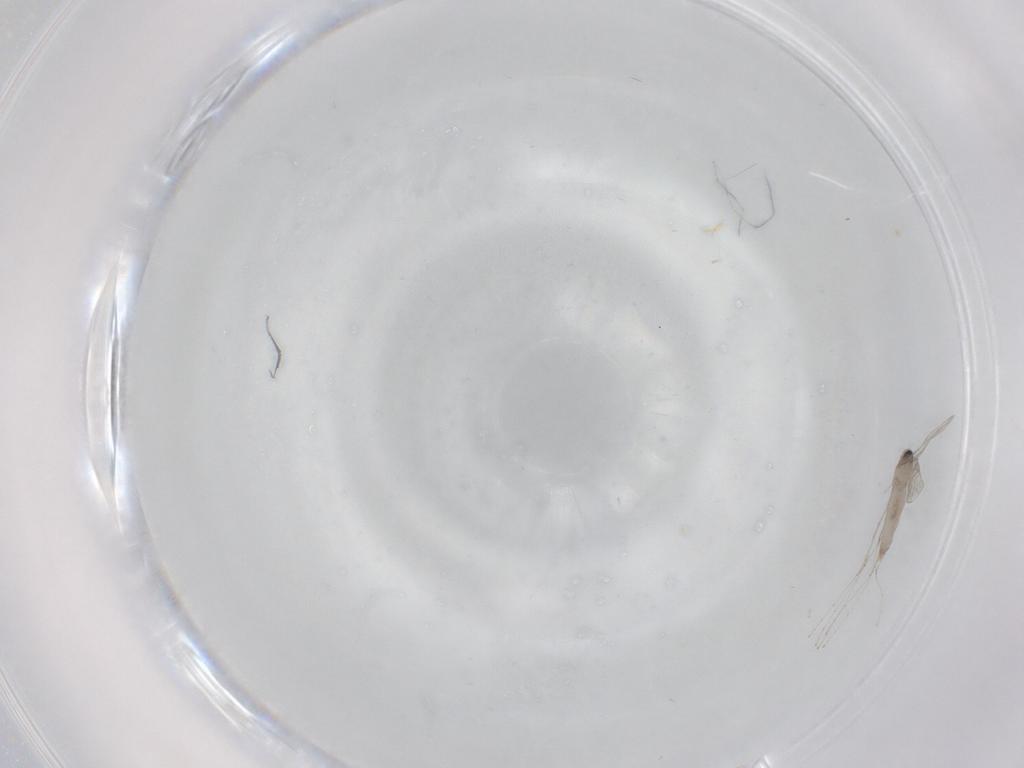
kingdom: Animalia
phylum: Arthropoda
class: Insecta
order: Diptera
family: Cecidomyiidae
